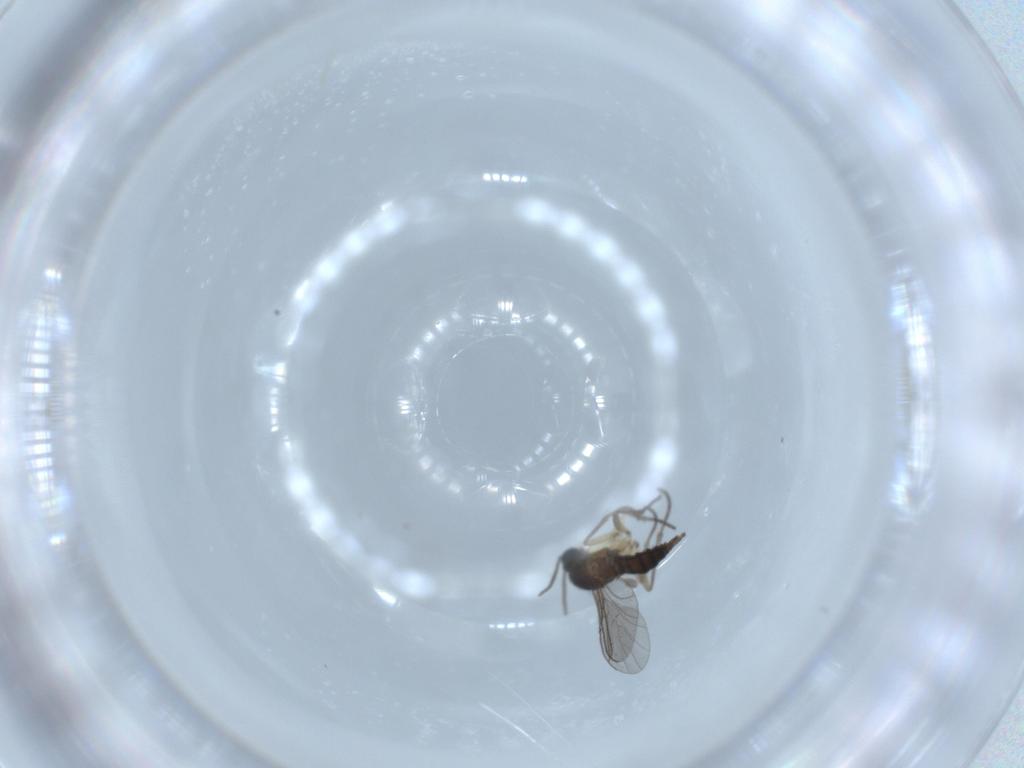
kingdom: Animalia
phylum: Arthropoda
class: Insecta
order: Diptera
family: Sciaridae
